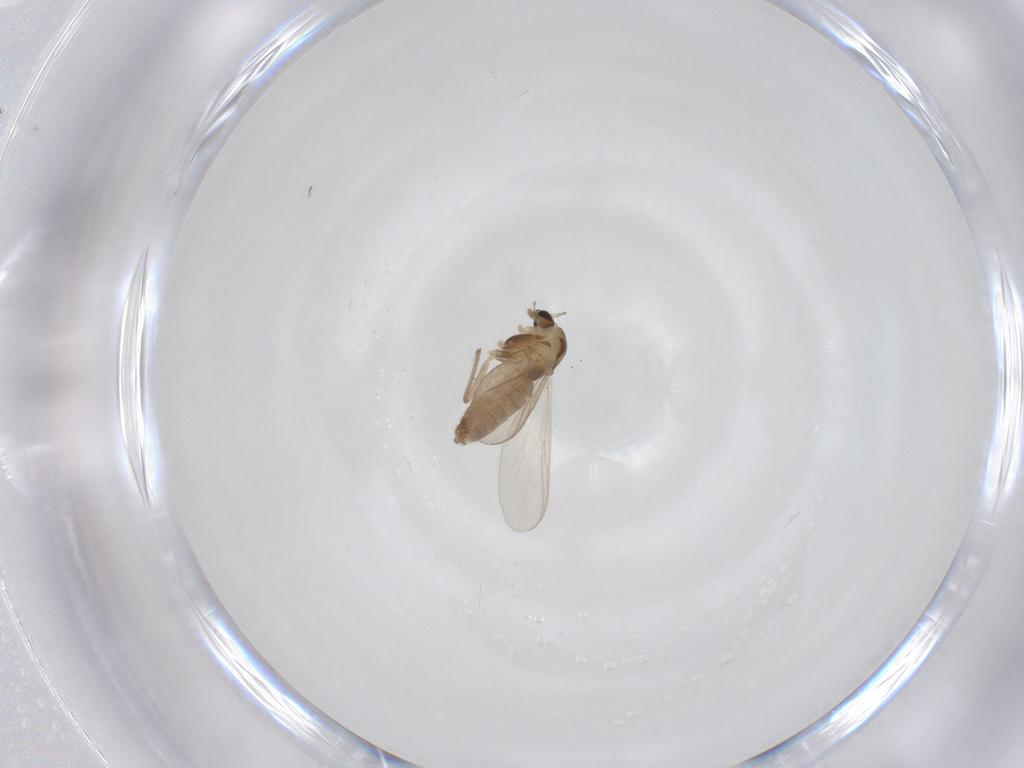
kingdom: Animalia
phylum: Arthropoda
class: Insecta
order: Diptera
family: Chironomidae
